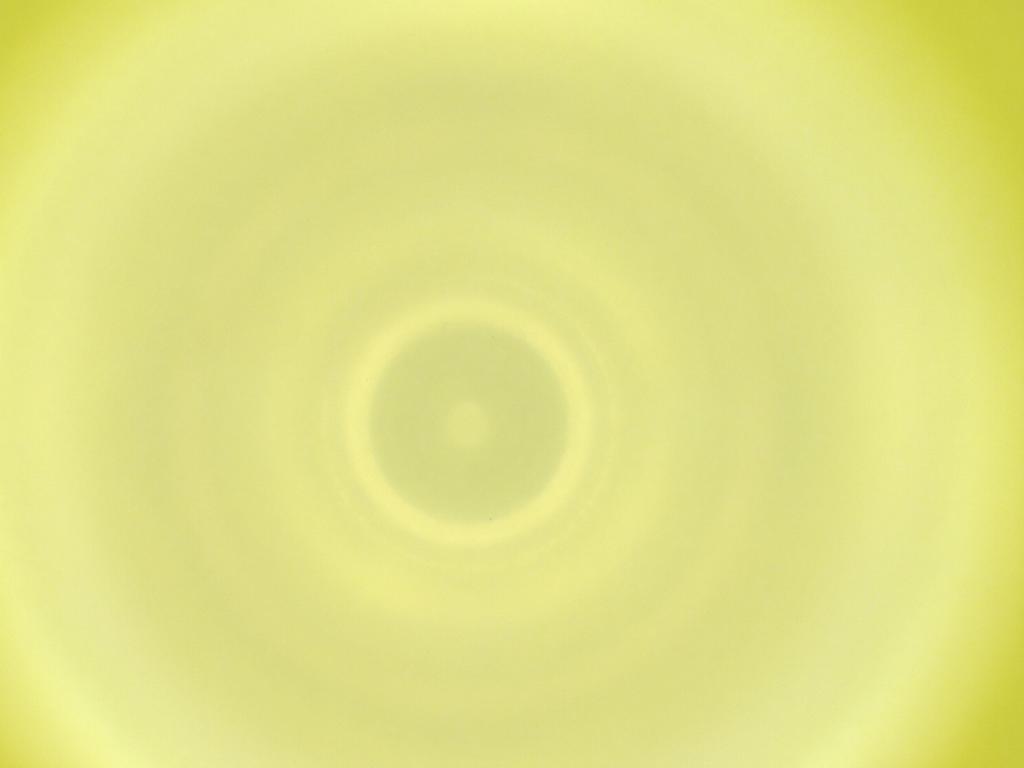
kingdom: Animalia
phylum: Arthropoda
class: Insecta
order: Diptera
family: Cecidomyiidae
